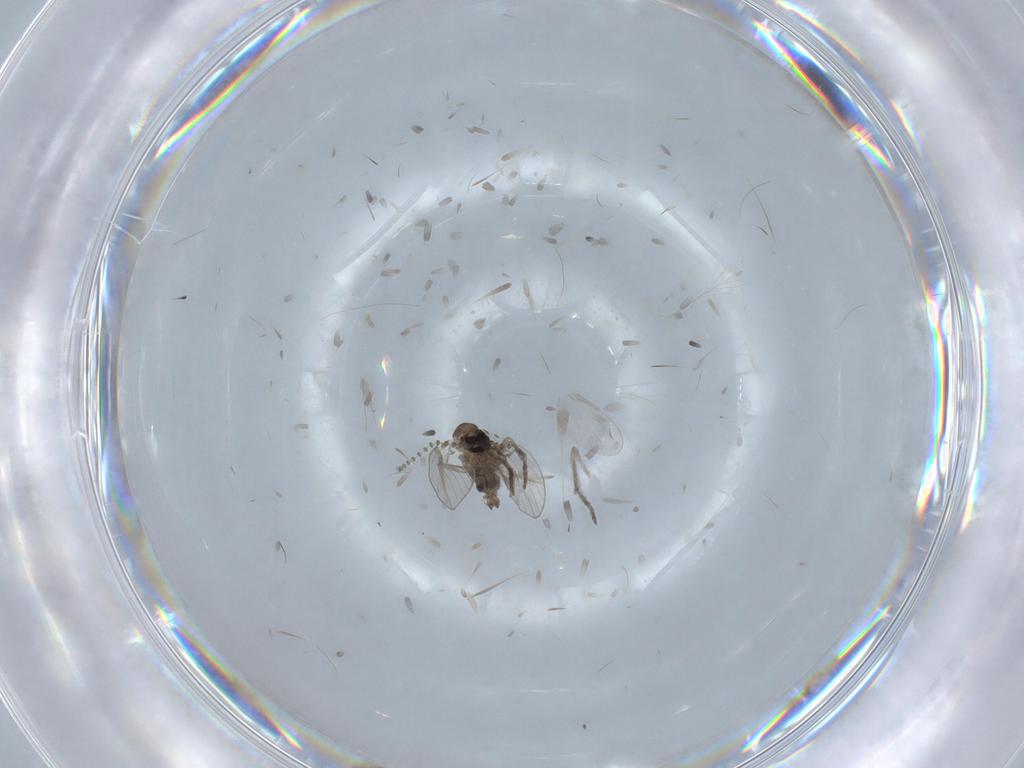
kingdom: Animalia
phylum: Arthropoda
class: Insecta
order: Diptera
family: Psychodidae
